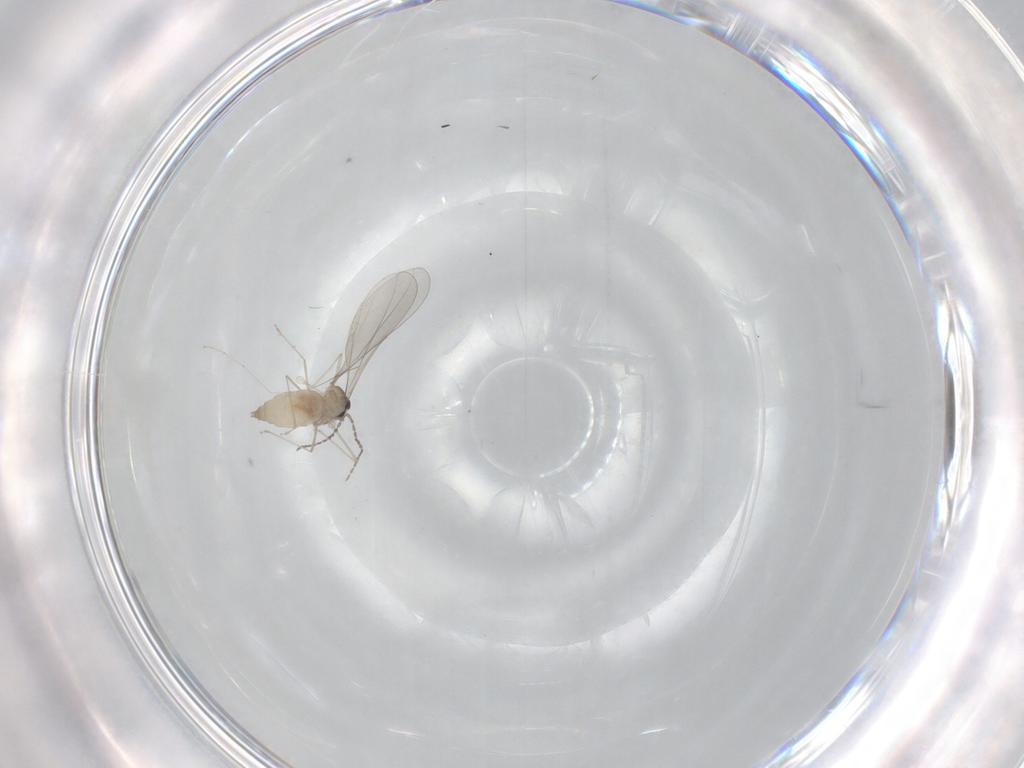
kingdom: Animalia
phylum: Arthropoda
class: Insecta
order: Diptera
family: Cecidomyiidae
